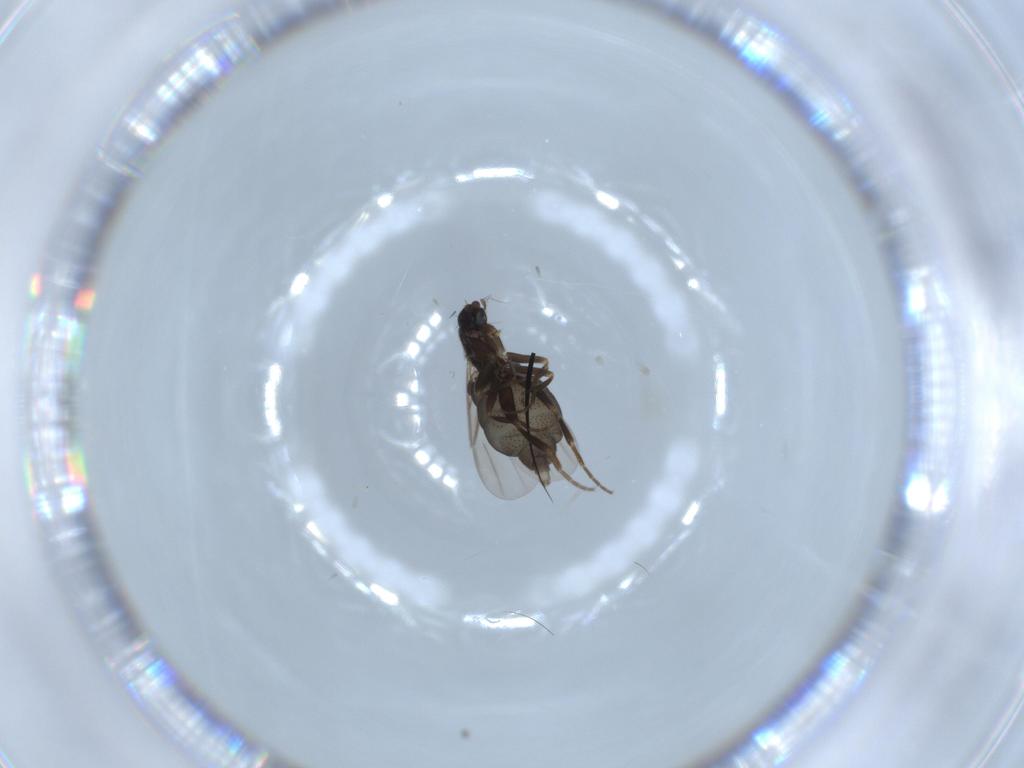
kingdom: Animalia
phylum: Arthropoda
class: Insecta
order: Diptera
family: Phoridae
